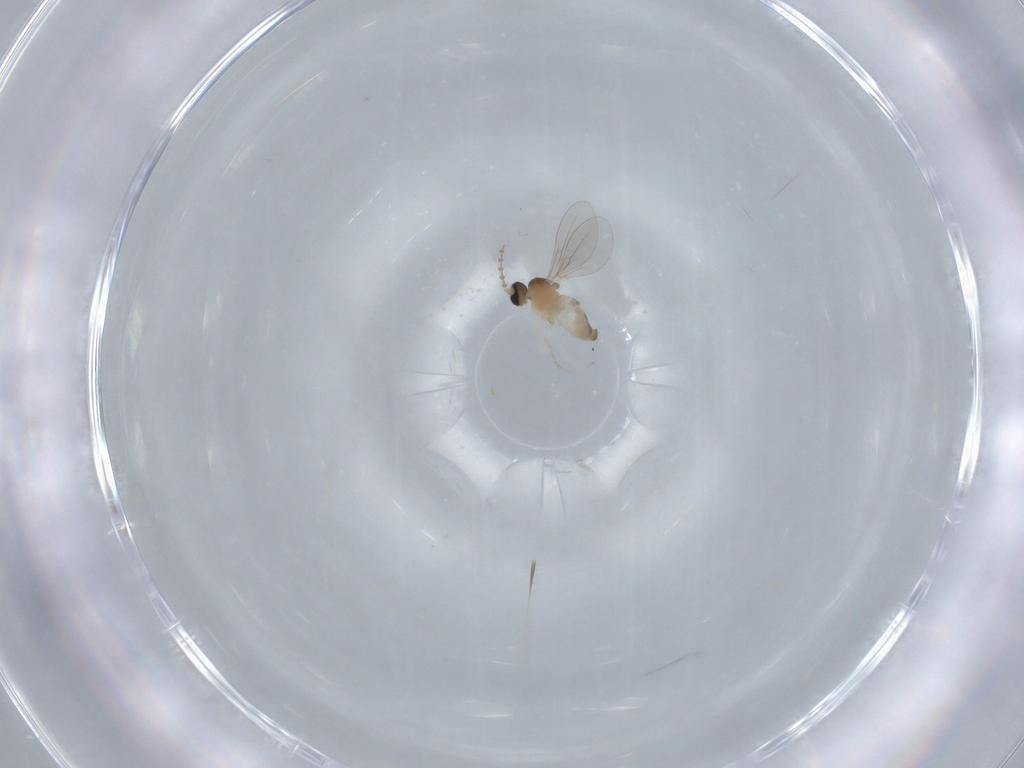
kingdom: Animalia
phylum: Arthropoda
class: Insecta
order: Diptera
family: Cecidomyiidae
